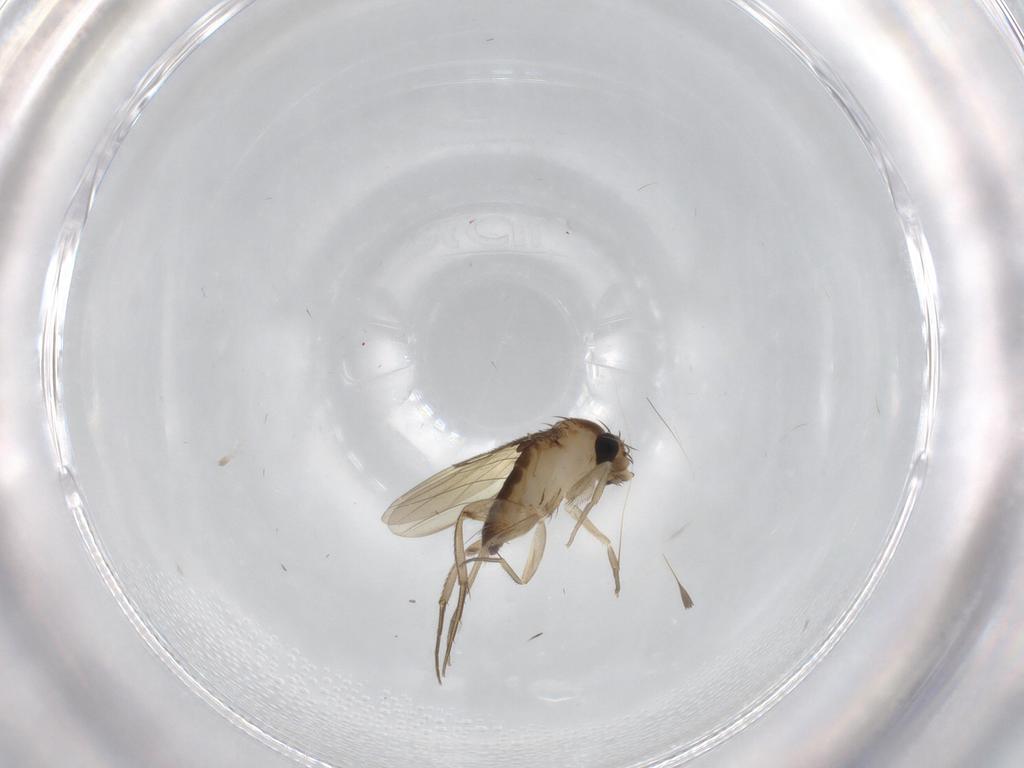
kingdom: Animalia
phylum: Arthropoda
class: Insecta
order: Diptera
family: Phoridae
